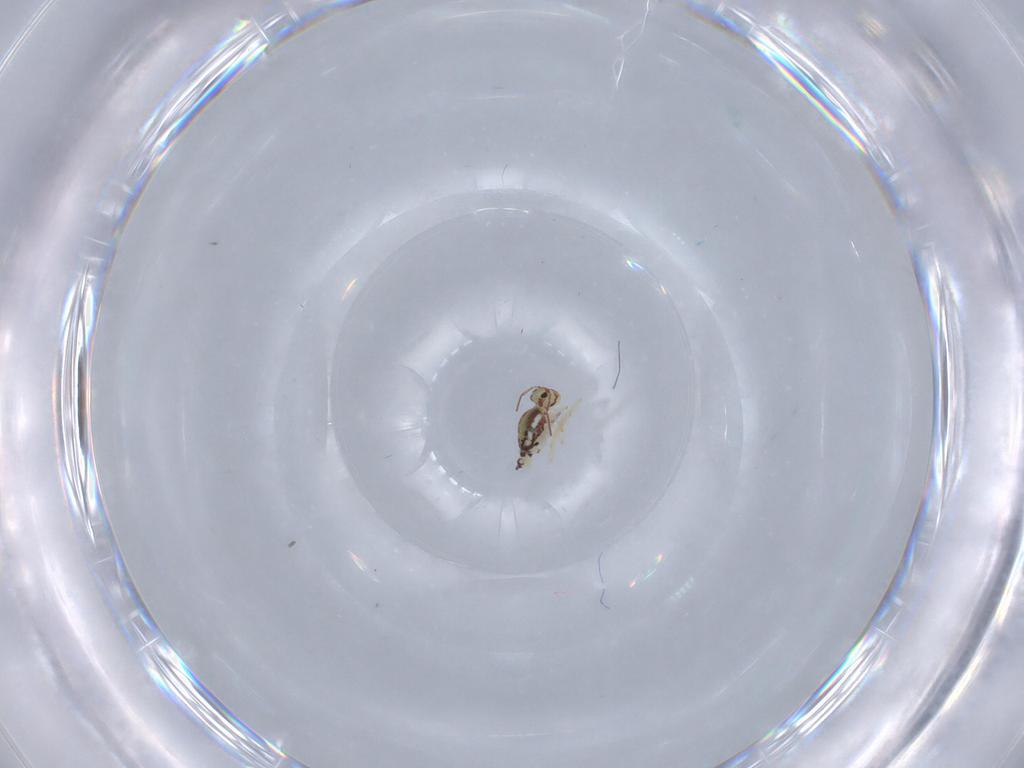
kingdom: Animalia
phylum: Arthropoda
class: Collembola
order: Symphypleona
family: Bourletiellidae
